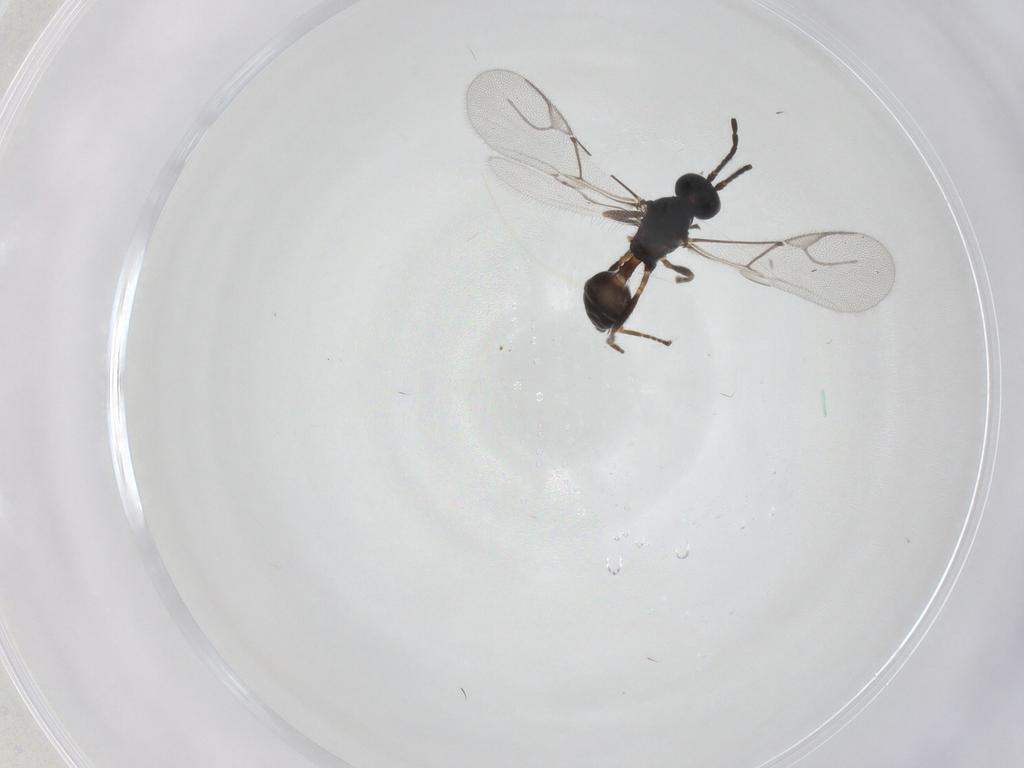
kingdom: Animalia
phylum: Arthropoda
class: Insecta
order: Hymenoptera
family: Braconidae
